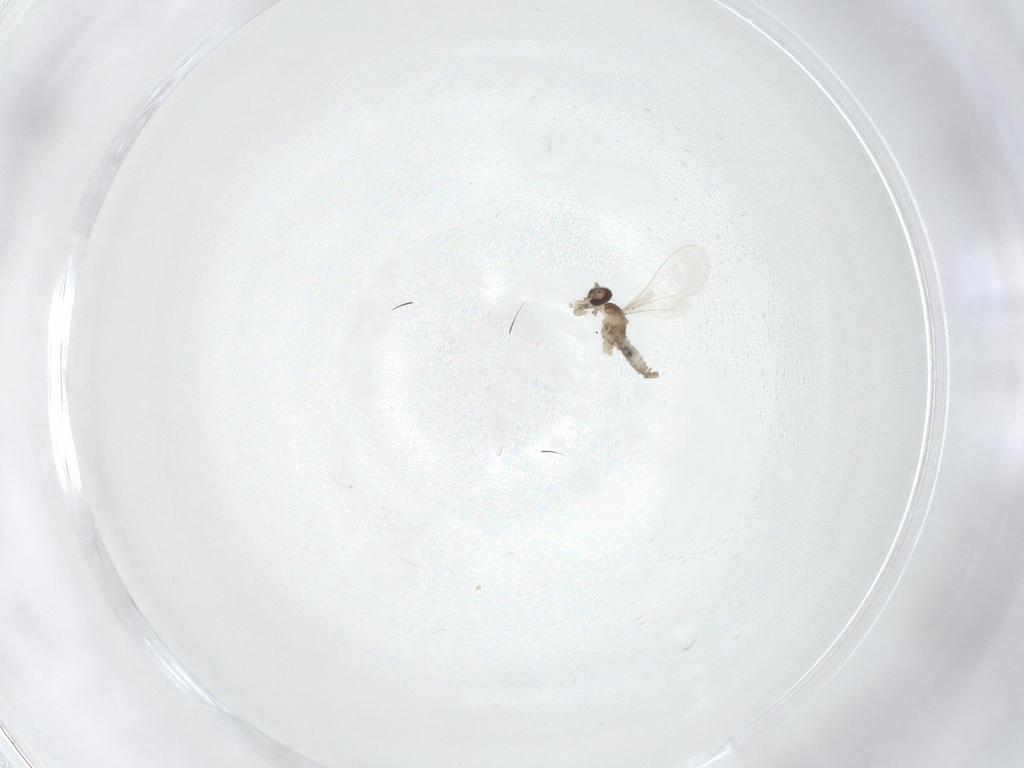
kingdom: Animalia
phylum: Arthropoda
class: Insecta
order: Diptera
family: Cecidomyiidae
